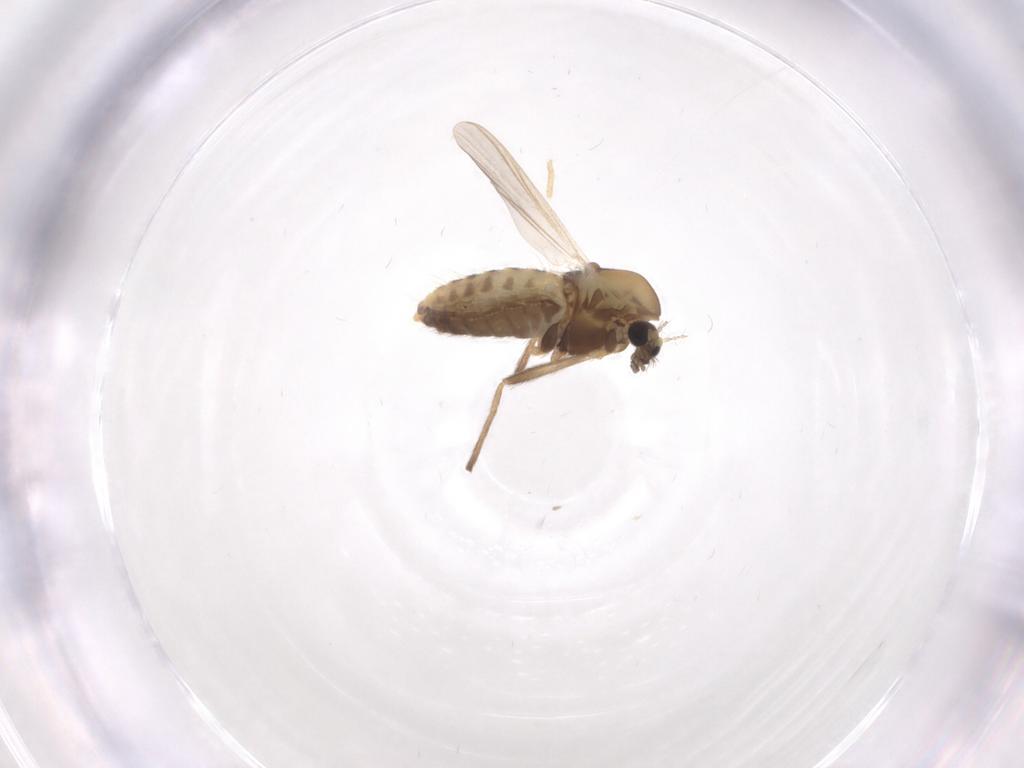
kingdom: Animalia
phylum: Arthropoda
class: Insecta
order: Diptera
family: Chironomidae
